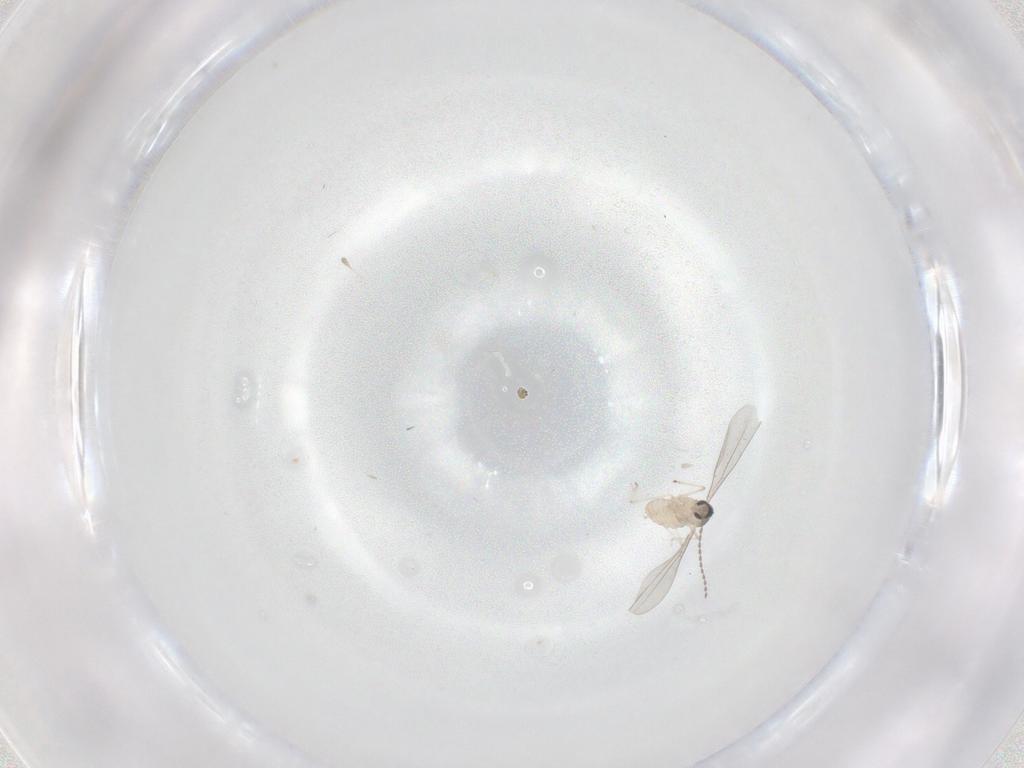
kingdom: Animalia
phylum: Arthropoda
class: Insecta
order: Diptera
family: Cecidomyiidae
